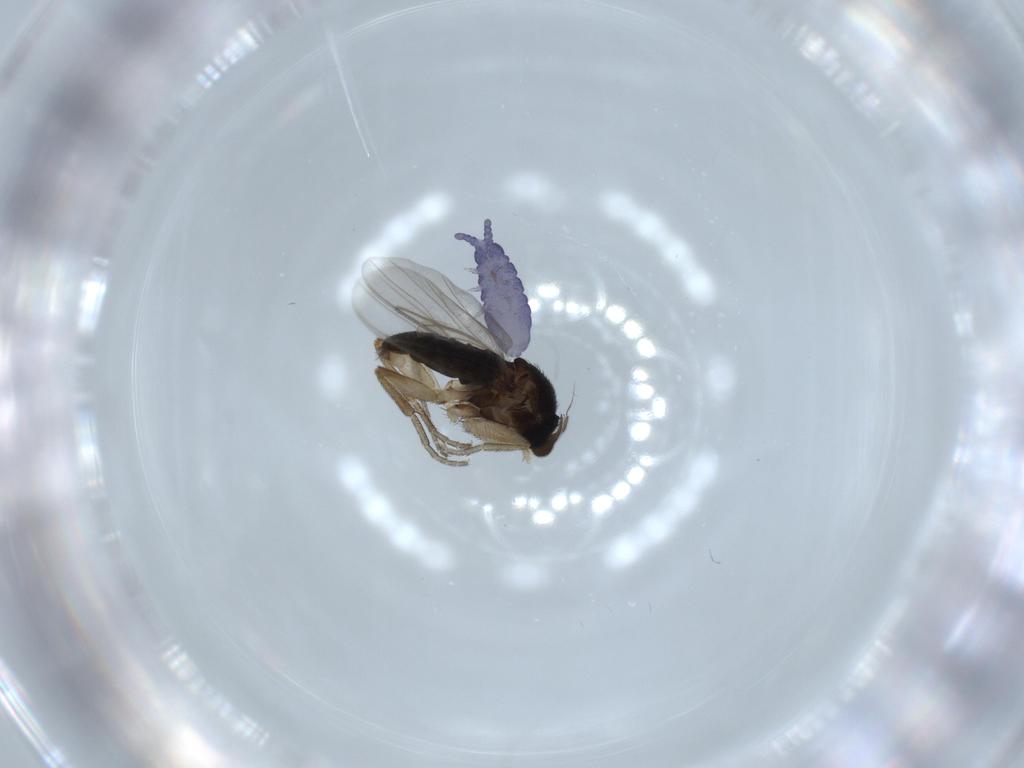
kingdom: Animalia
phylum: Arthropoda
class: Collembola
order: Poduromorpha
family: Neanuridae
